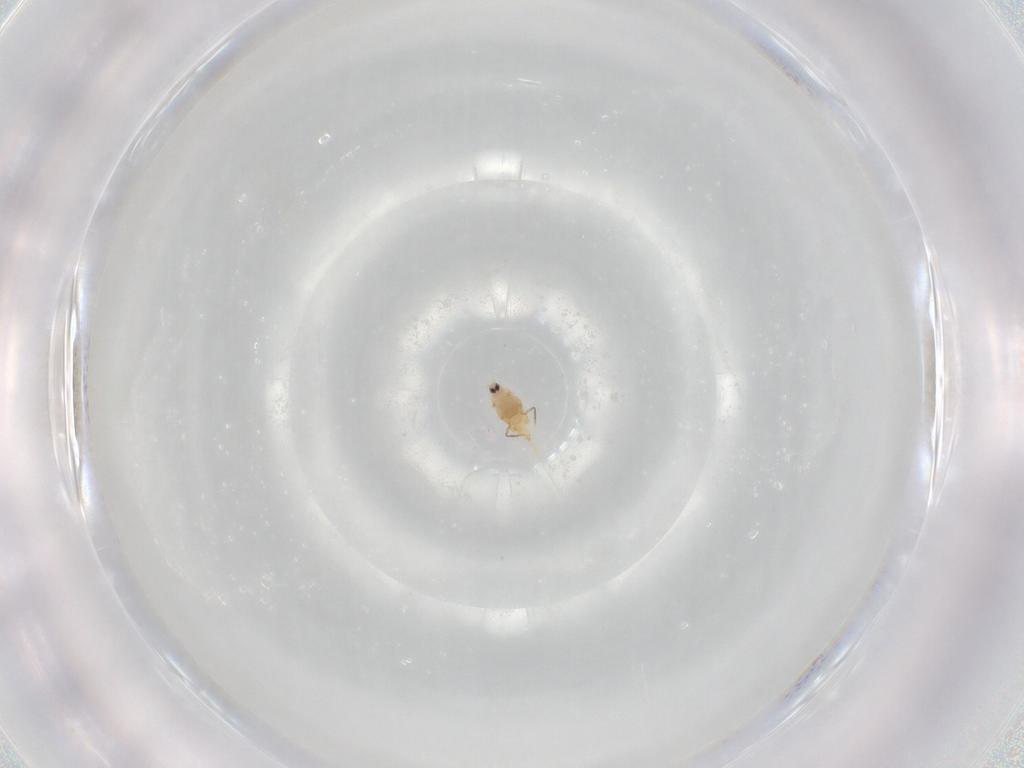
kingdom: Animalia
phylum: Arthropoda
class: Insecta
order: Hemiptera
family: Diaspididae
